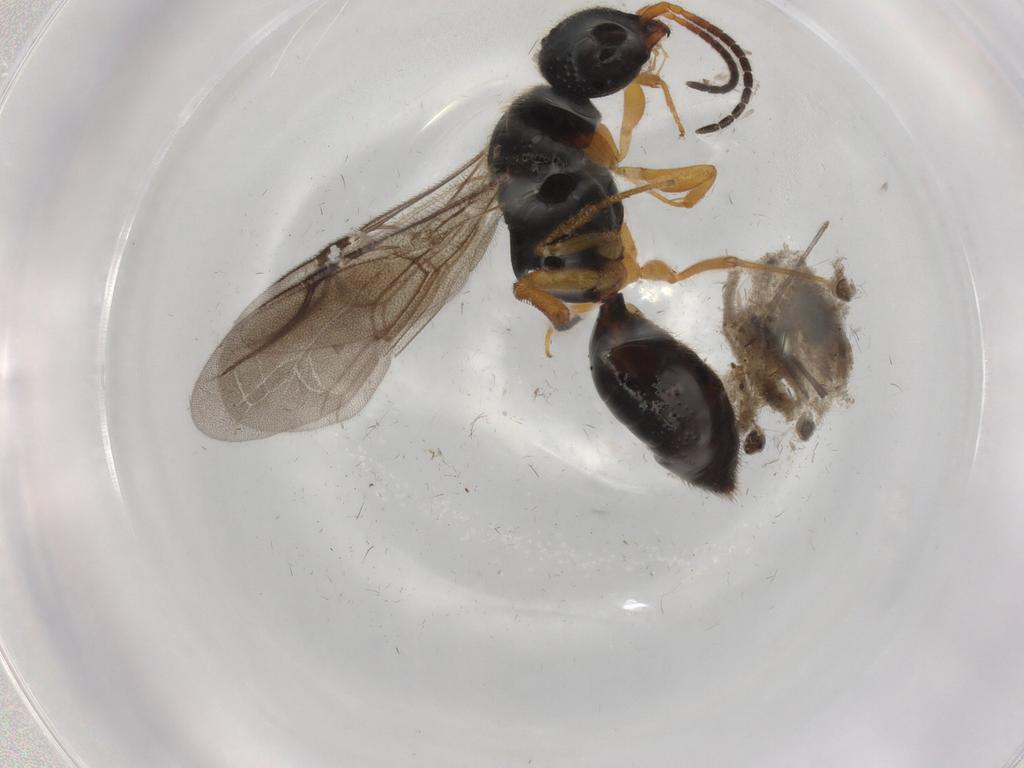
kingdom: Animalia
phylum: Arthropoda
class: Insecta
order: Hymenoptera
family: Bethylidae
